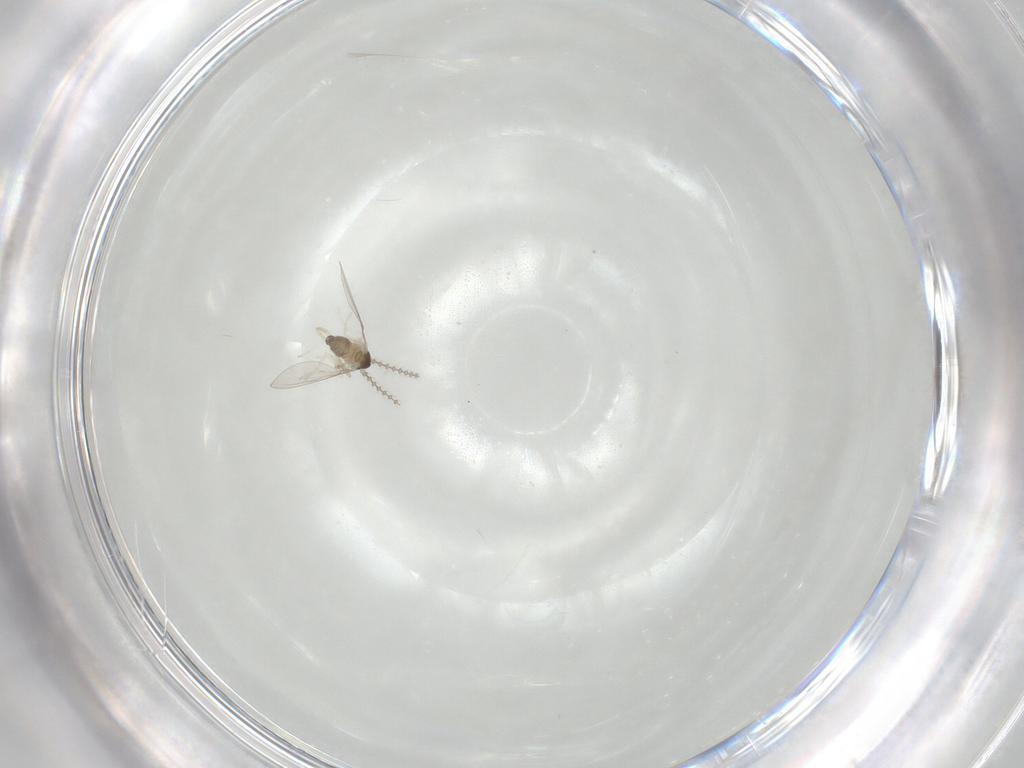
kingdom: Animalia
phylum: Arthropoda
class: Insecta
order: Diptera
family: Cecidomyiidae
